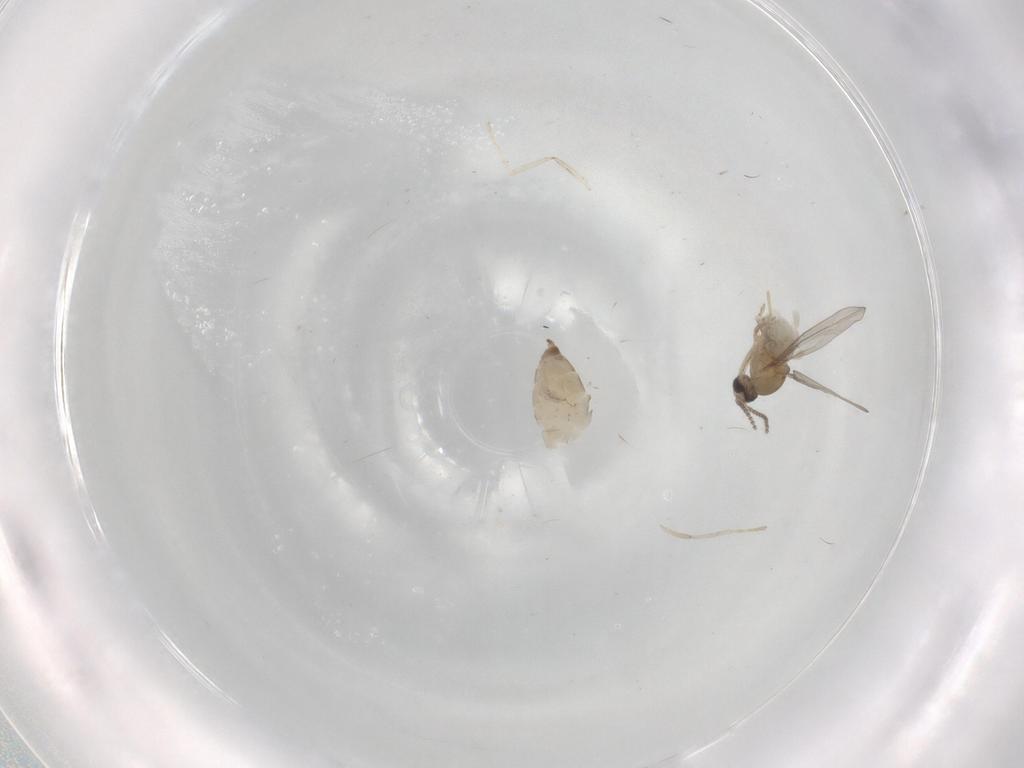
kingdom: Animalia
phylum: Arthropoda
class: Insecta
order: Diptera
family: Cecidomyiidae
